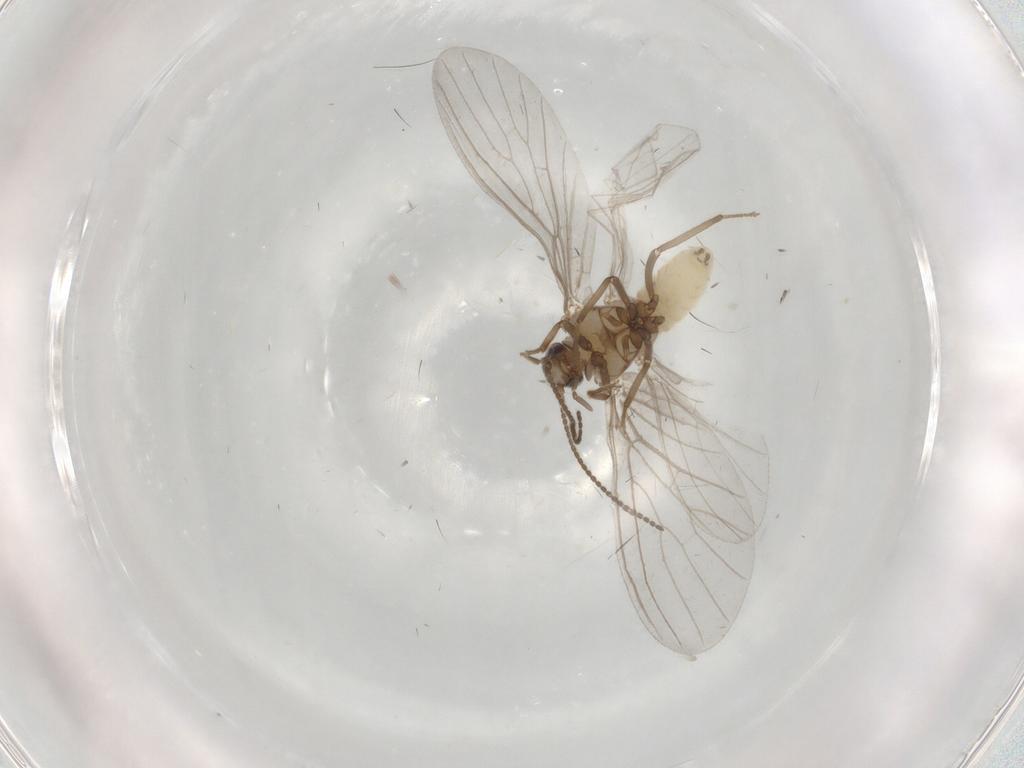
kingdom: Animalia
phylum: Arthropoda
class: Insecta
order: Neuroptera
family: Coniopterygidae
